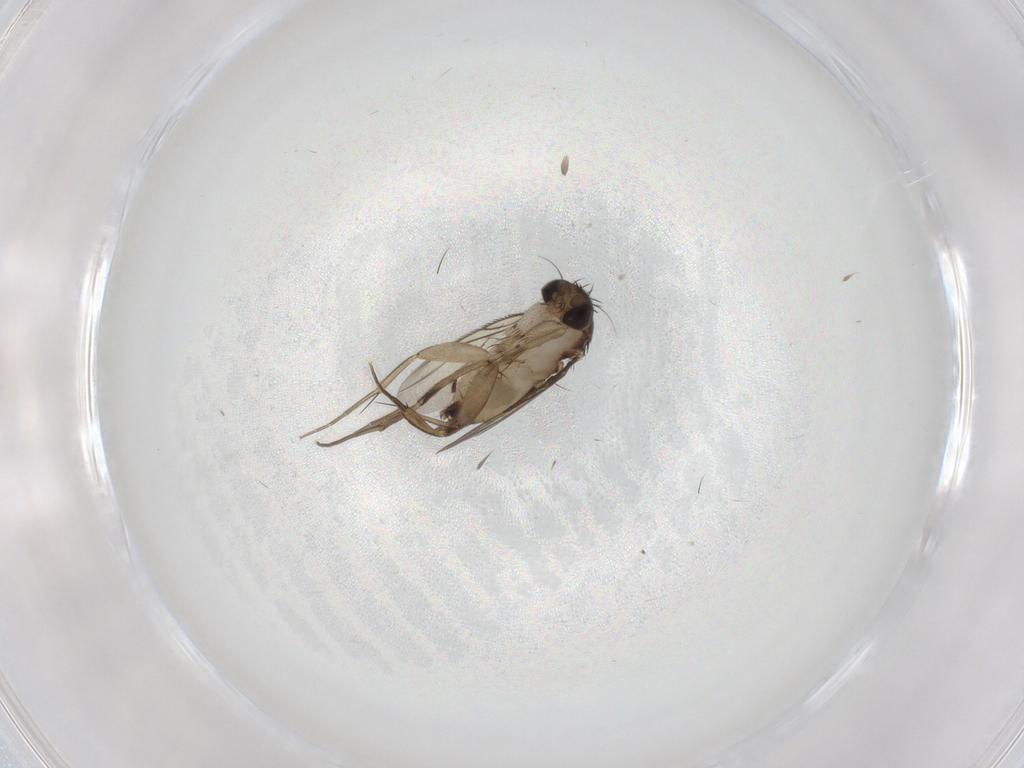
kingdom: Animalia
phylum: Arthropoda
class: Insecta
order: Diptera
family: Phoridae
